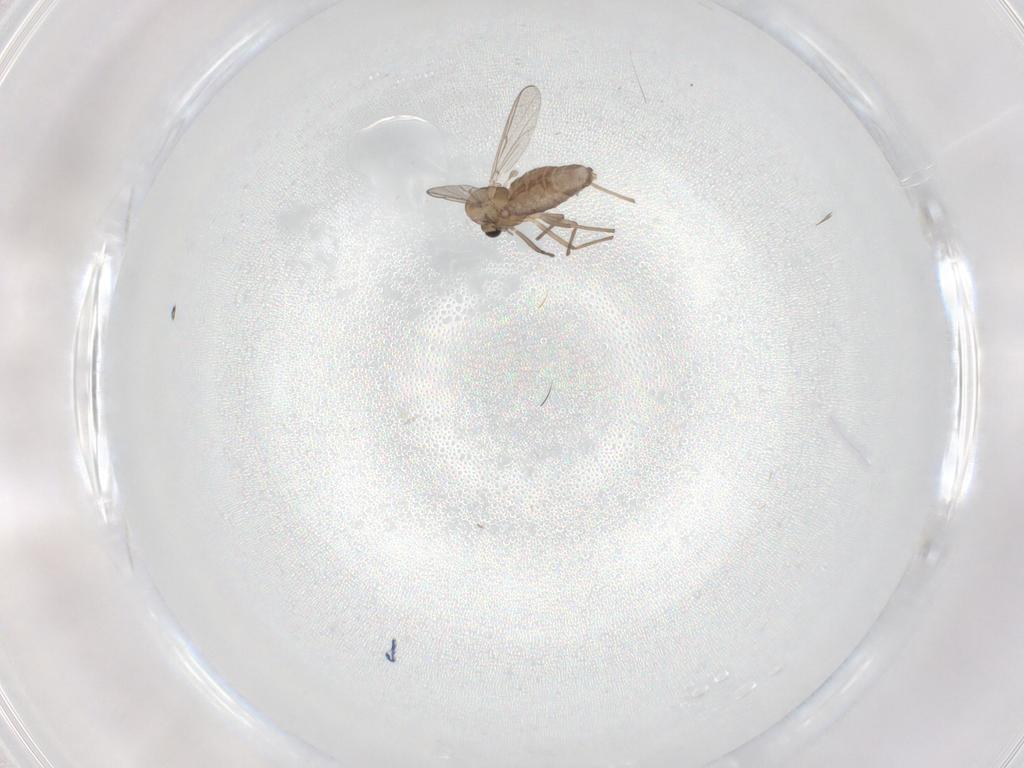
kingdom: Animalia
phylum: Arthropoda
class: Insecta
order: Diptera
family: Chironomidae
